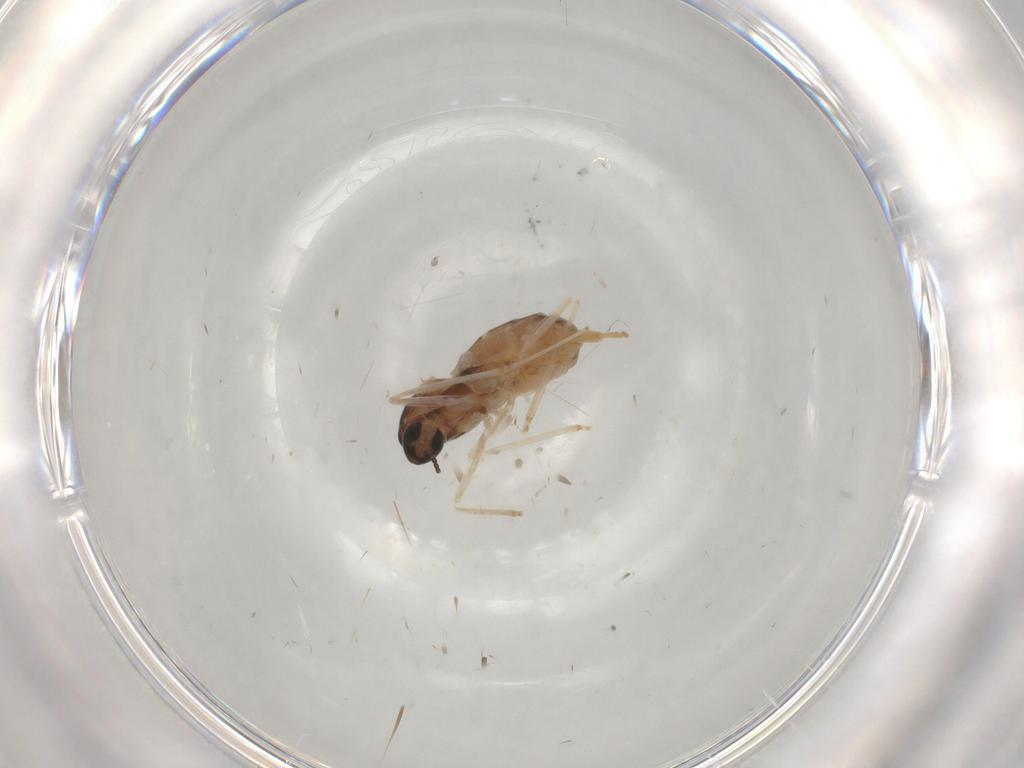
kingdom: Animalia
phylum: Arthropoda
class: Insecta
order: Diptera
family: Cecidomyiidae
